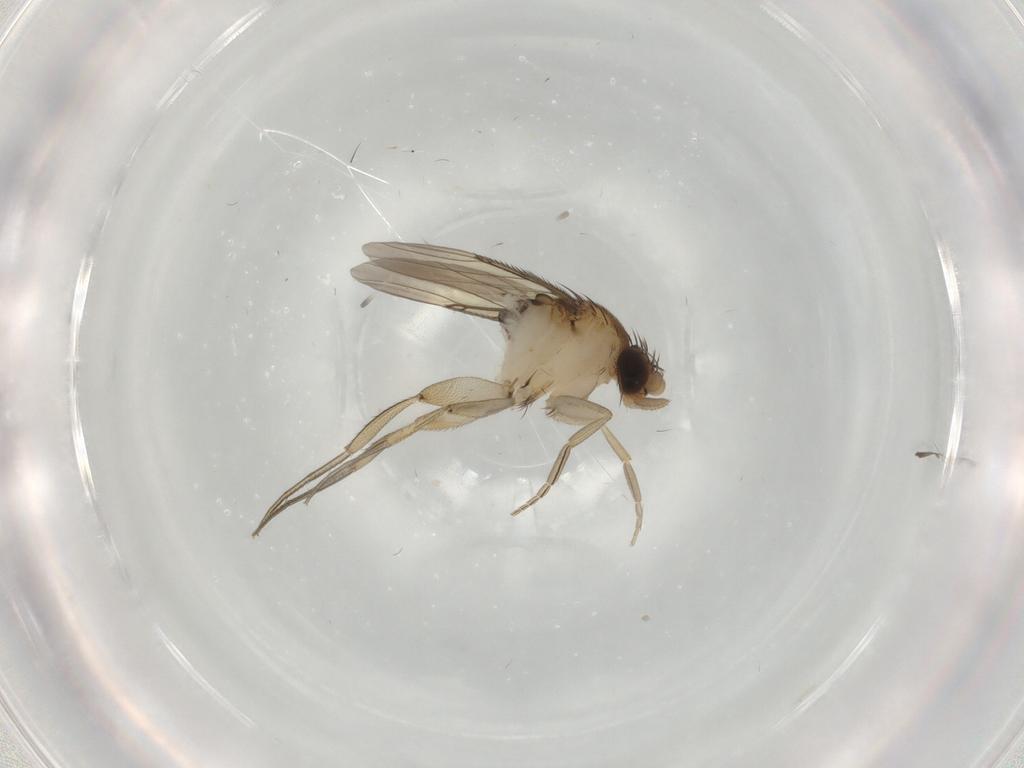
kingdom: Animalia
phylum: Arthropoda
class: Insecta
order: Diptera
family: Phoridae
